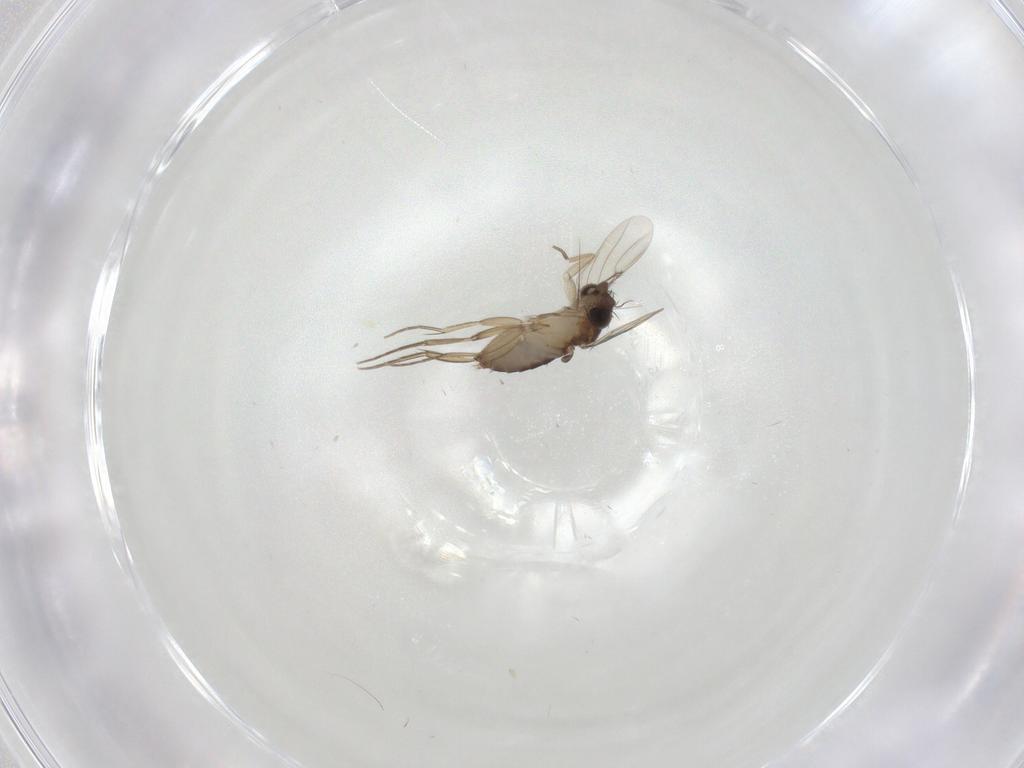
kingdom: Animalia
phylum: Arthropoda
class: Insecta
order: Diptera
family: Phoridae
